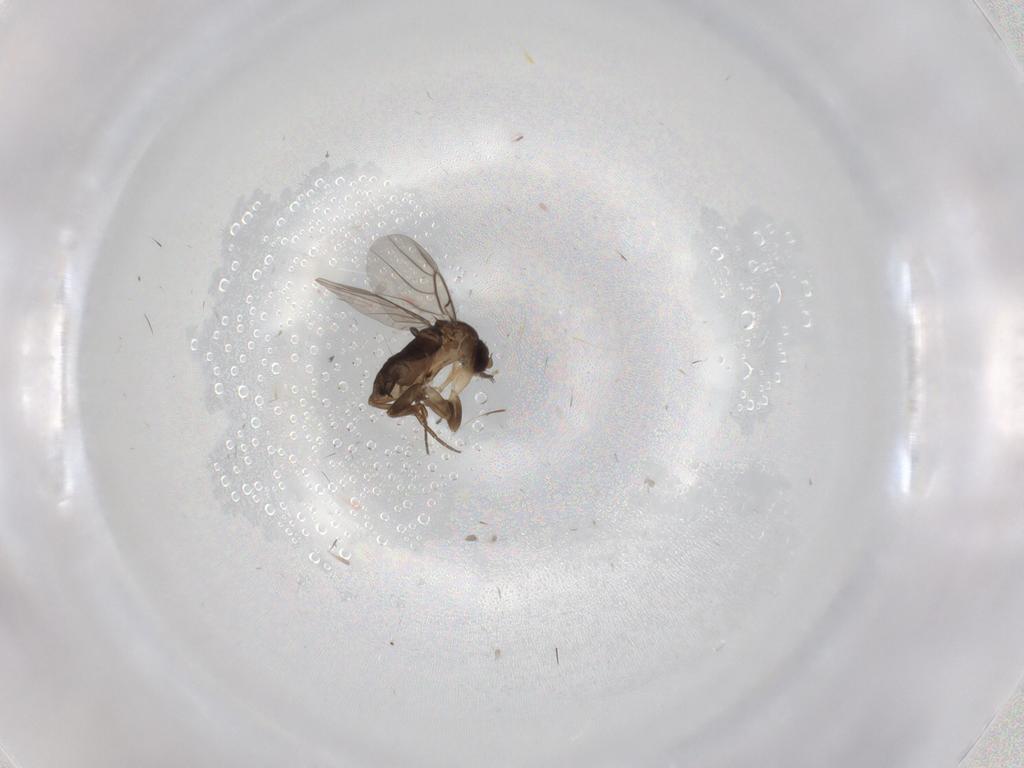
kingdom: Animalia
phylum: Arthropoda
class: Insecta
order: Diptera
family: Phoridae
